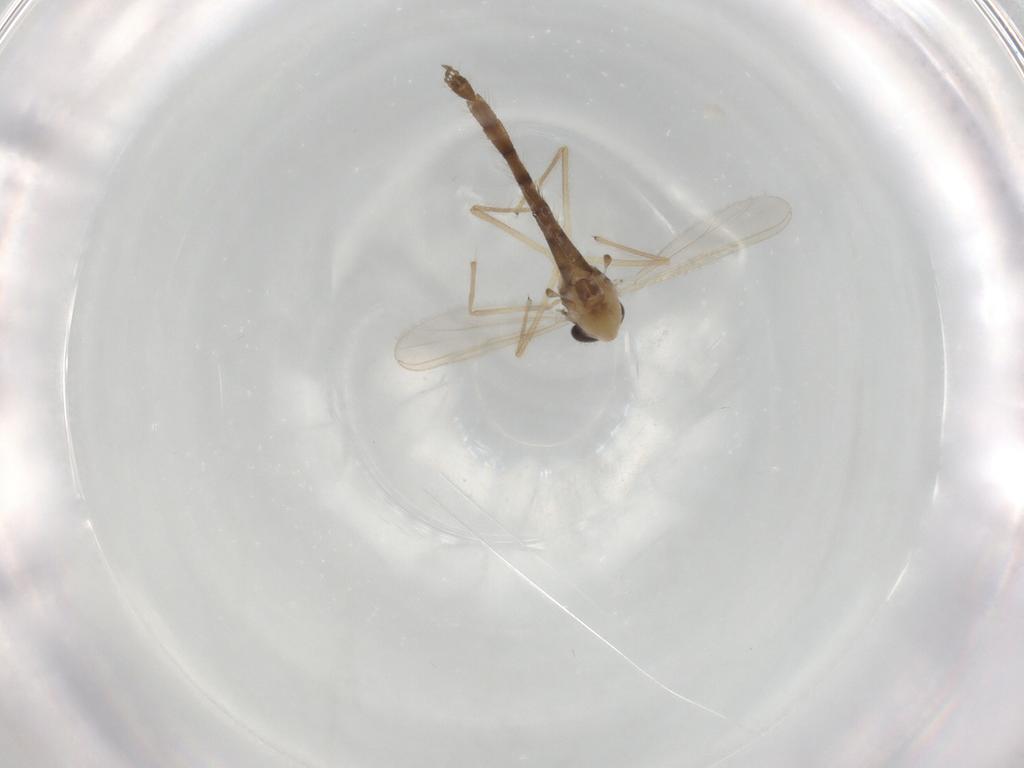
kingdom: Animalia
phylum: Arthropoda
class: Insecta
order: Diptera
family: Chironomidae
